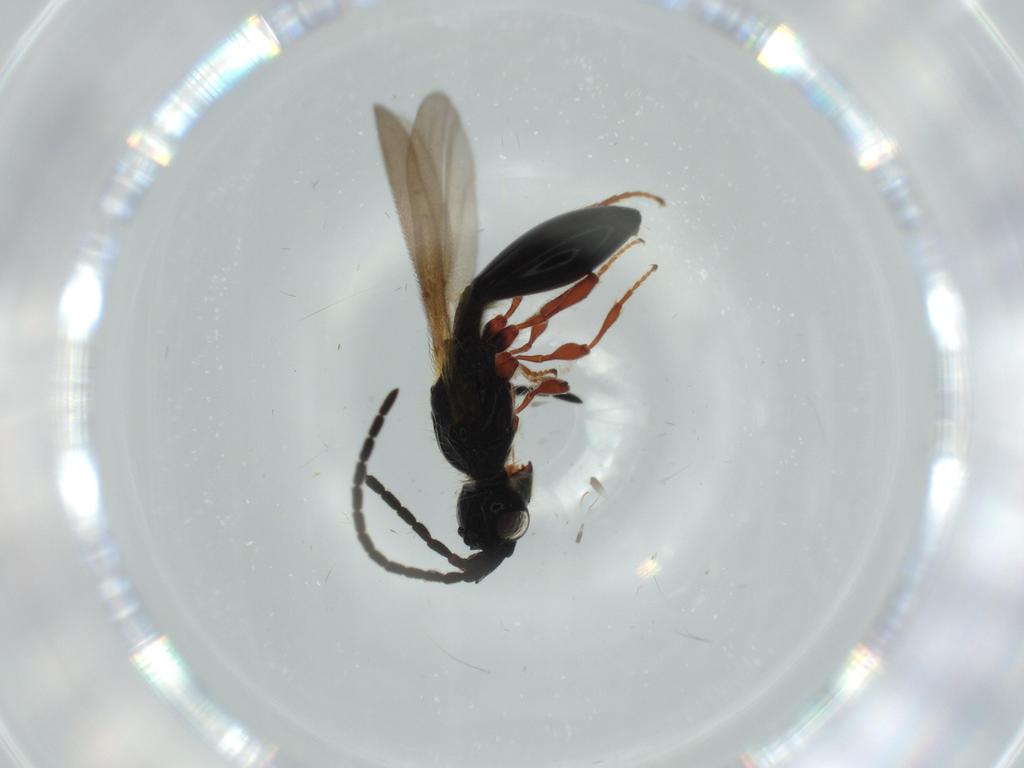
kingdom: Animalia
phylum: Arthropoda
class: Insecta
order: Hymenoptera
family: Diapriidae
